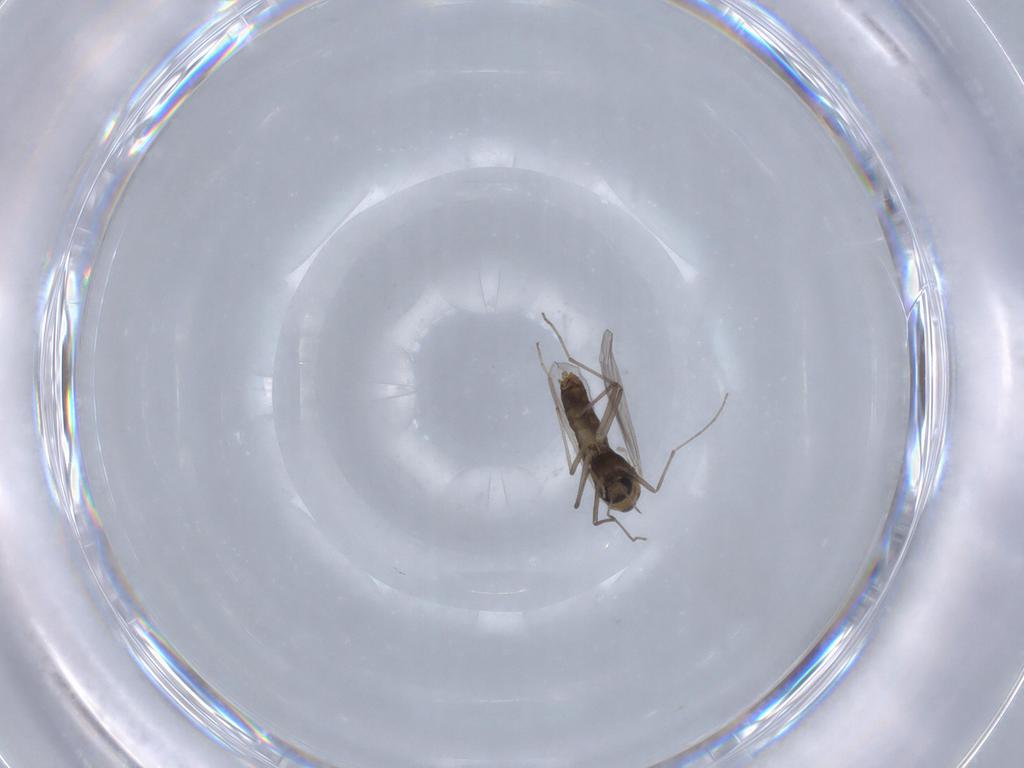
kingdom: Animalia
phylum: Arthropoda
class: Insecta
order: Diptera
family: Chironomidae
